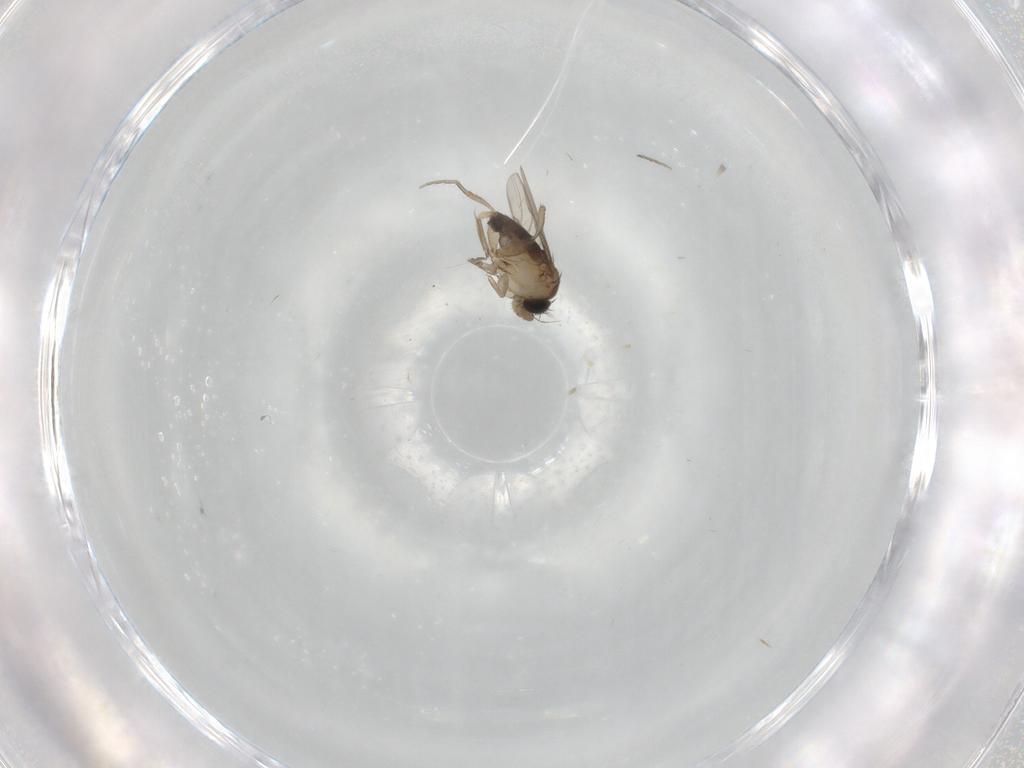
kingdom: Animalia
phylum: Arthropoda
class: Insecta
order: Diptera
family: Phoridae
